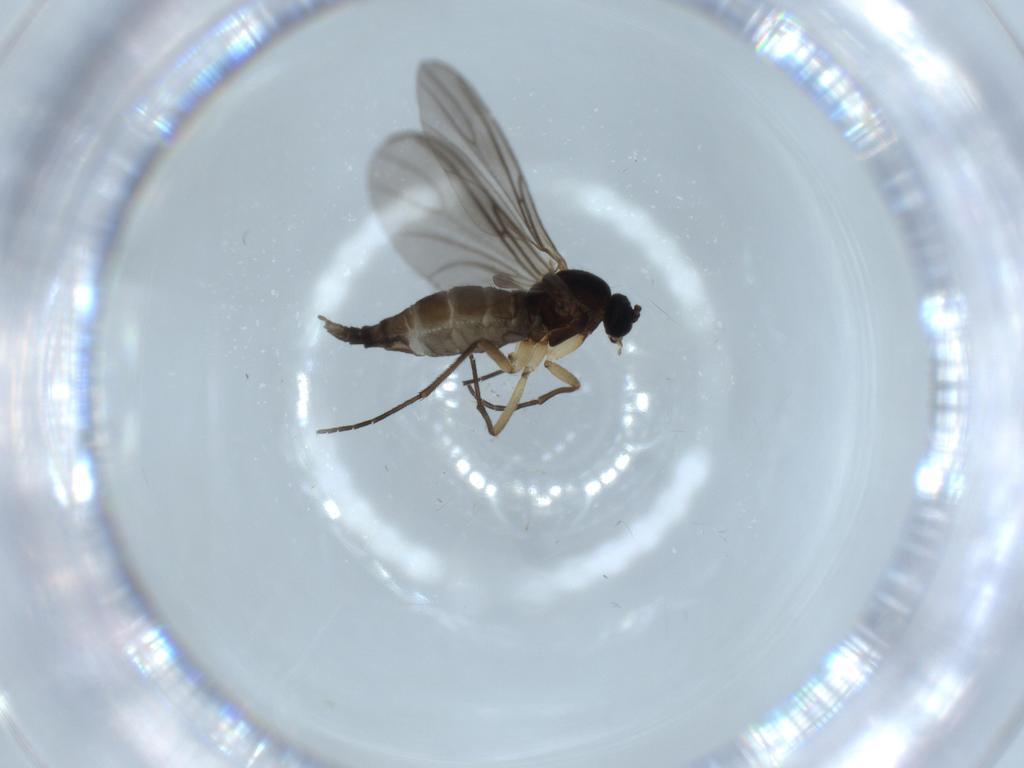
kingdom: Animalia
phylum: Arthropoda
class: Insecta
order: Diptera
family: Sciaridae
